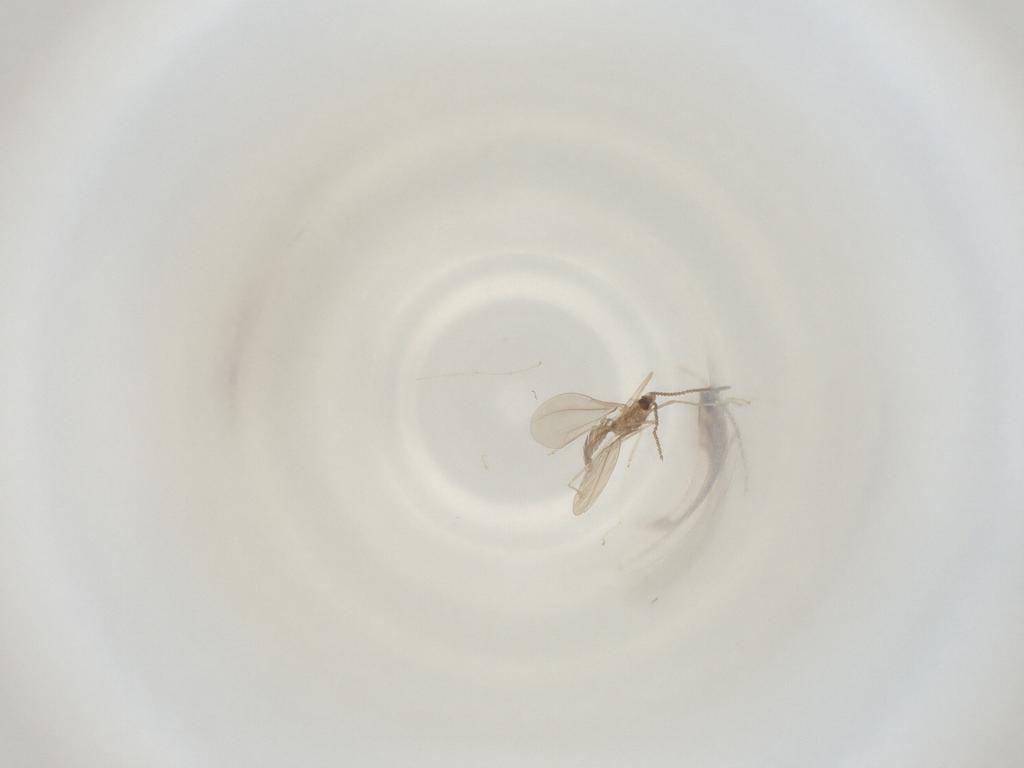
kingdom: Animalia
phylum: Arthropoda
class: Insecta
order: Diptera
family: Cecidomyiidae
